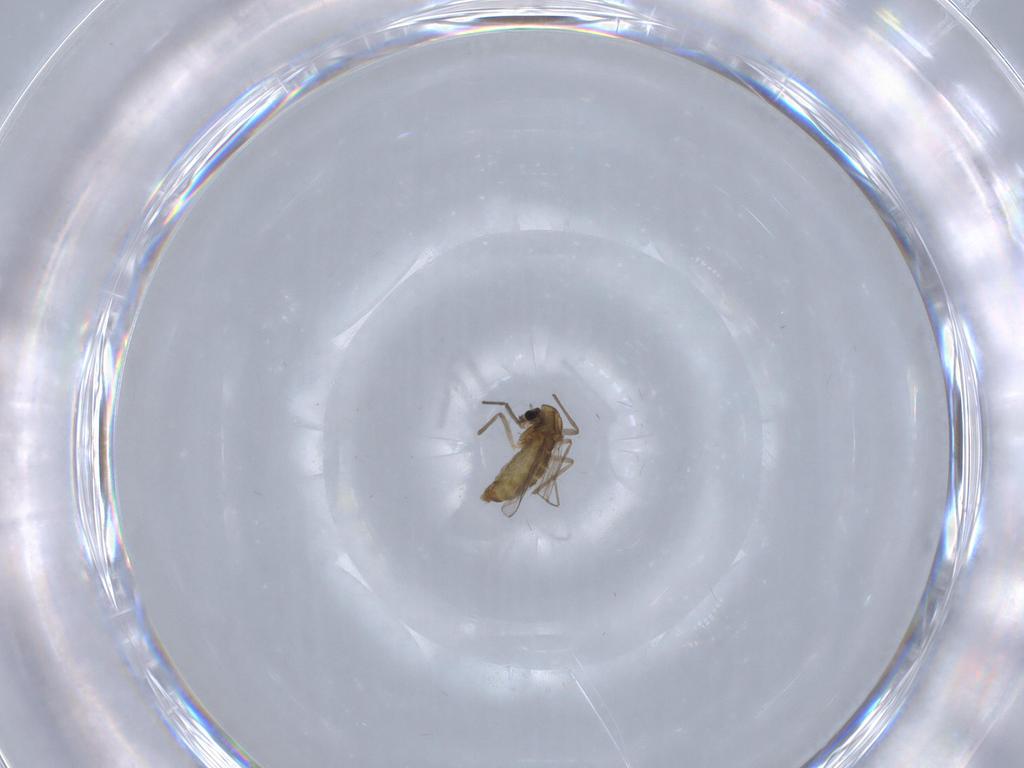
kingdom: Animalia
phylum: Arthropoda
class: Insecta
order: Diptera
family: Chironomidae
